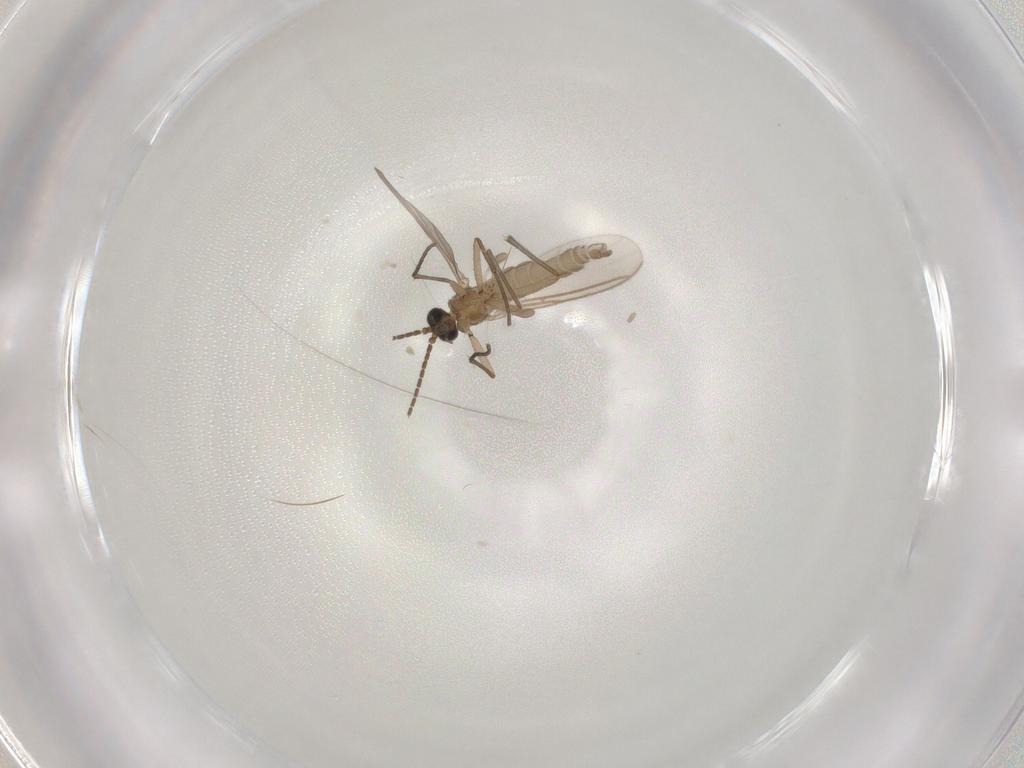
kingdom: Animalia
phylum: Arthropoda
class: Insecta
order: Diptera
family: Sciaridae
